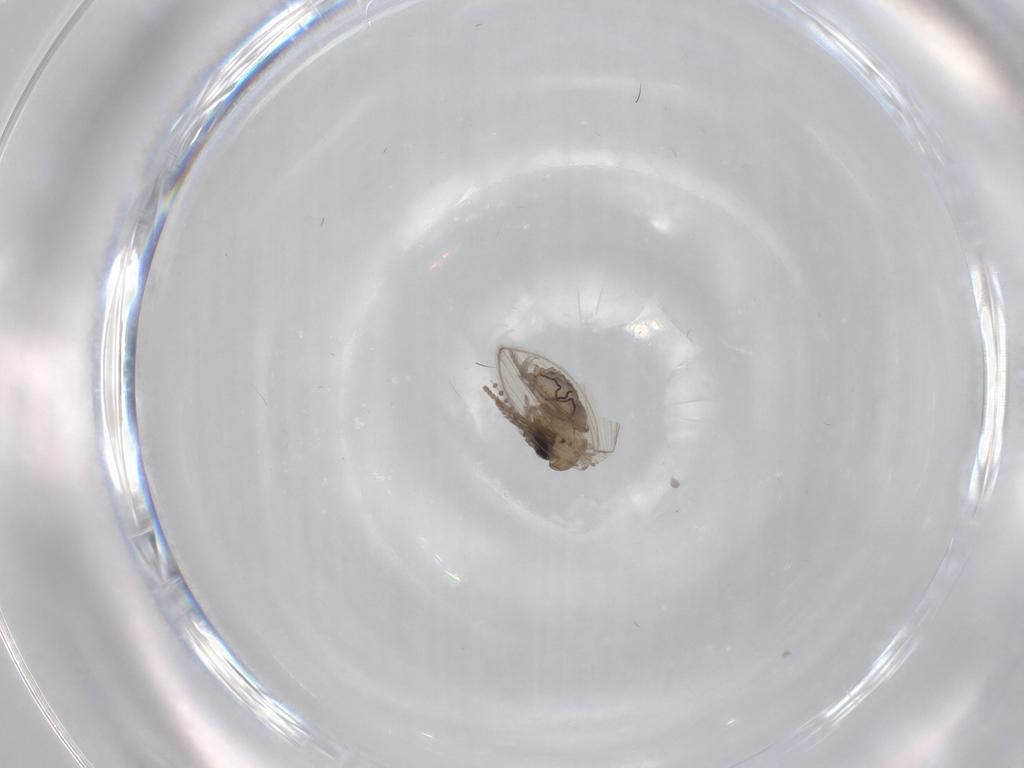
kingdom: Animalia
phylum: Arthropoda
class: Insecta
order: Diptera
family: Psychodidae
